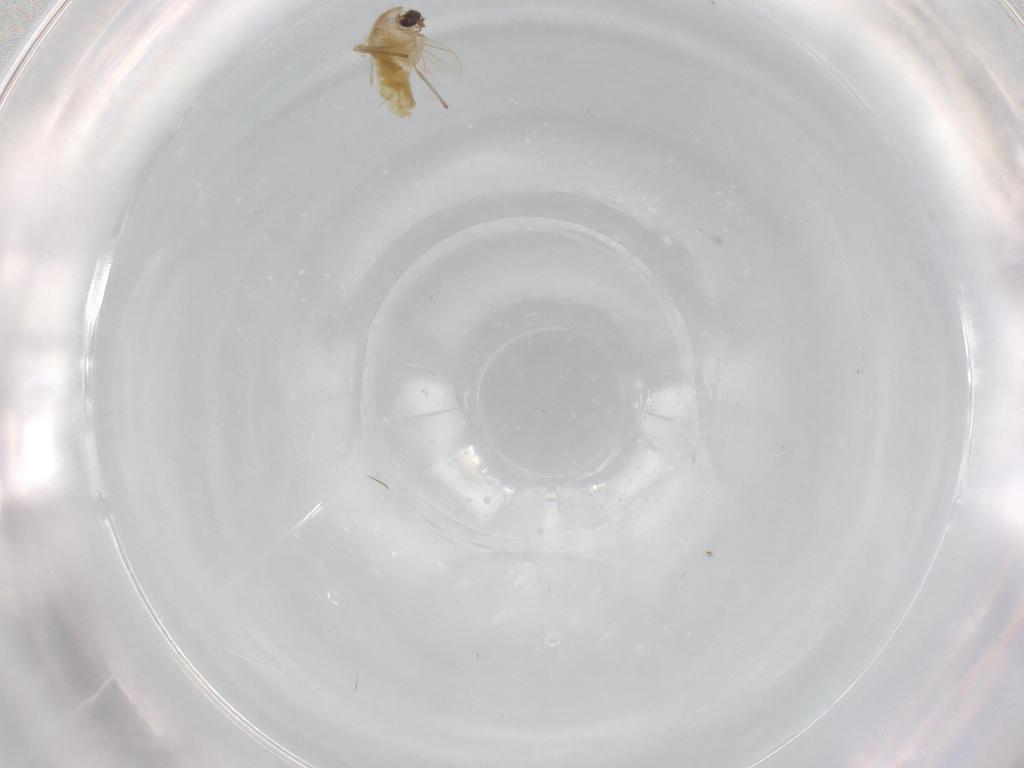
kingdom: Animalia
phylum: Arthropoda
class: Insecta
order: Diptera
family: Chironomidae
